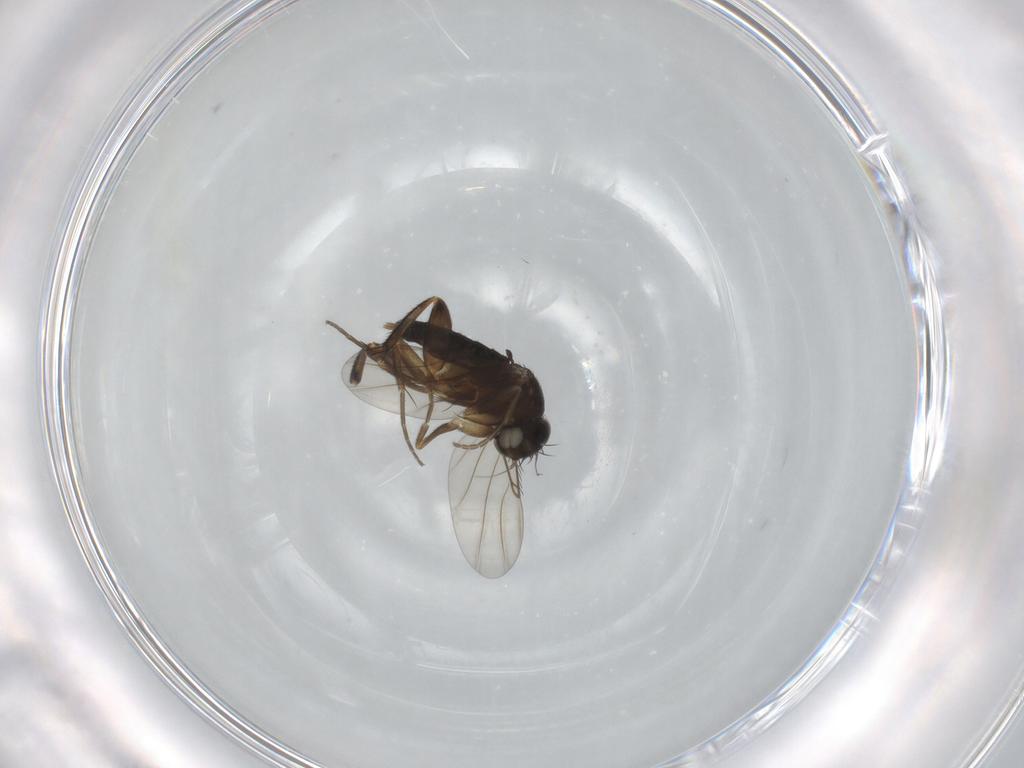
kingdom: Animalia
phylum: Arthropoda
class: Insecta
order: Diptera
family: Phoridae
